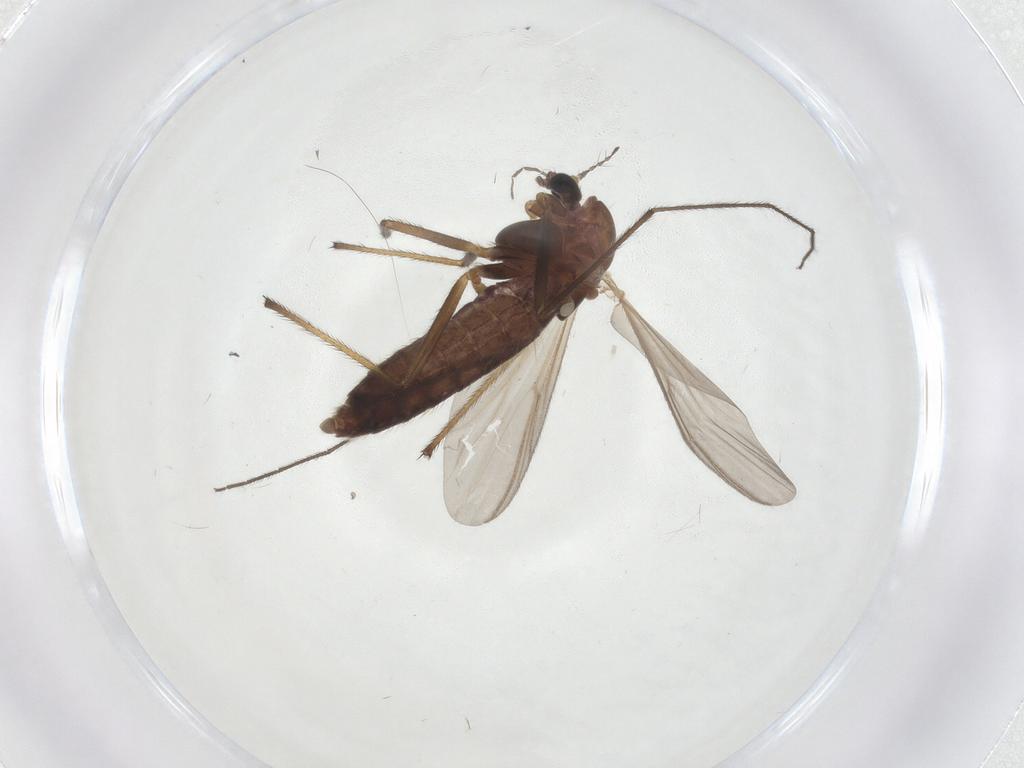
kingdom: Animalia
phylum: Arthropoda
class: Insecta
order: Diptera
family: Chironomidae
